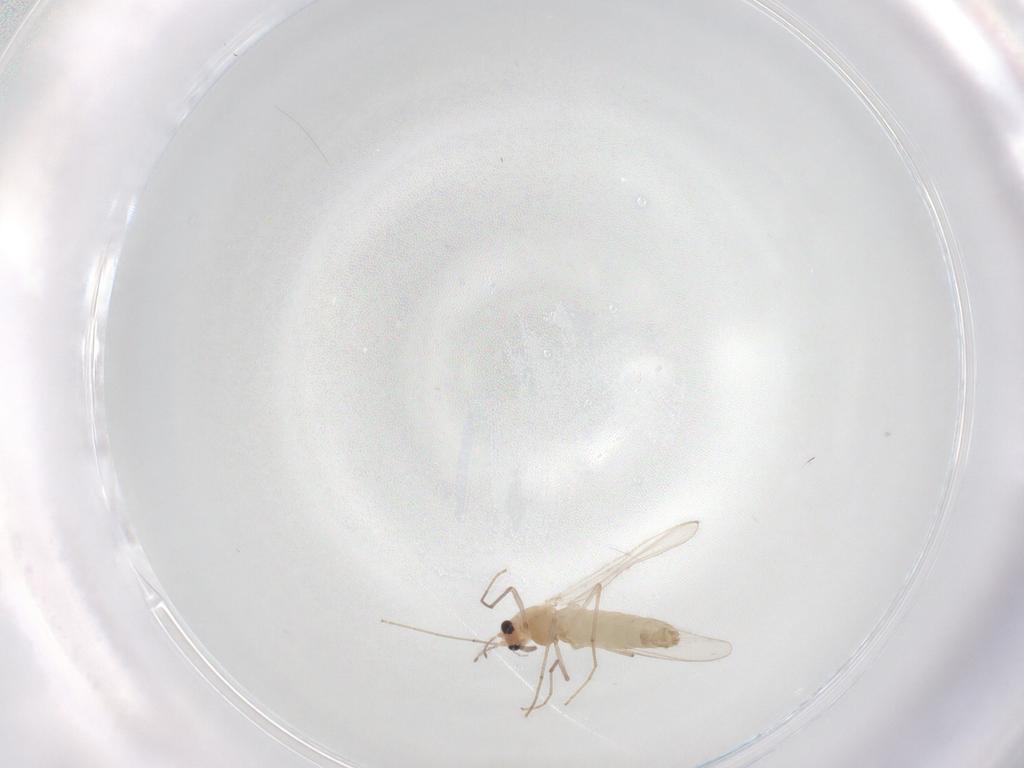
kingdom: Animalia
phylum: Arthropoda
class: Insecta
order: Diptera
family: Chironomidae
